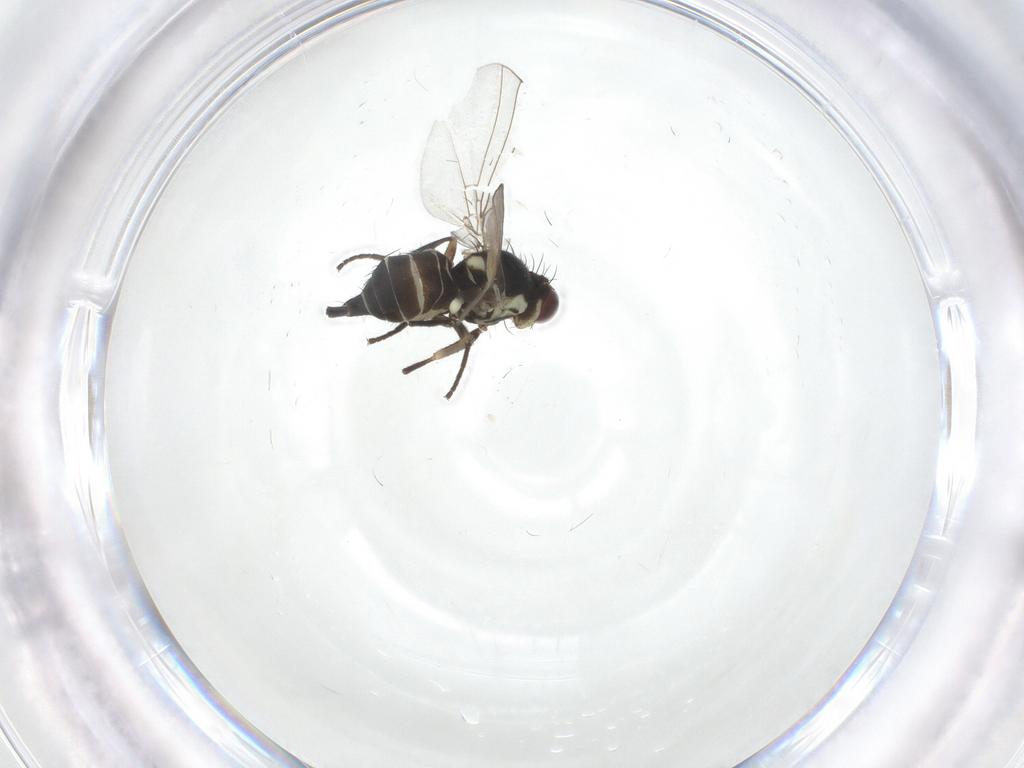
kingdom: Animalia
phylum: Arthropoda
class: Insecta
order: Diptera
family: Agromyzidae
